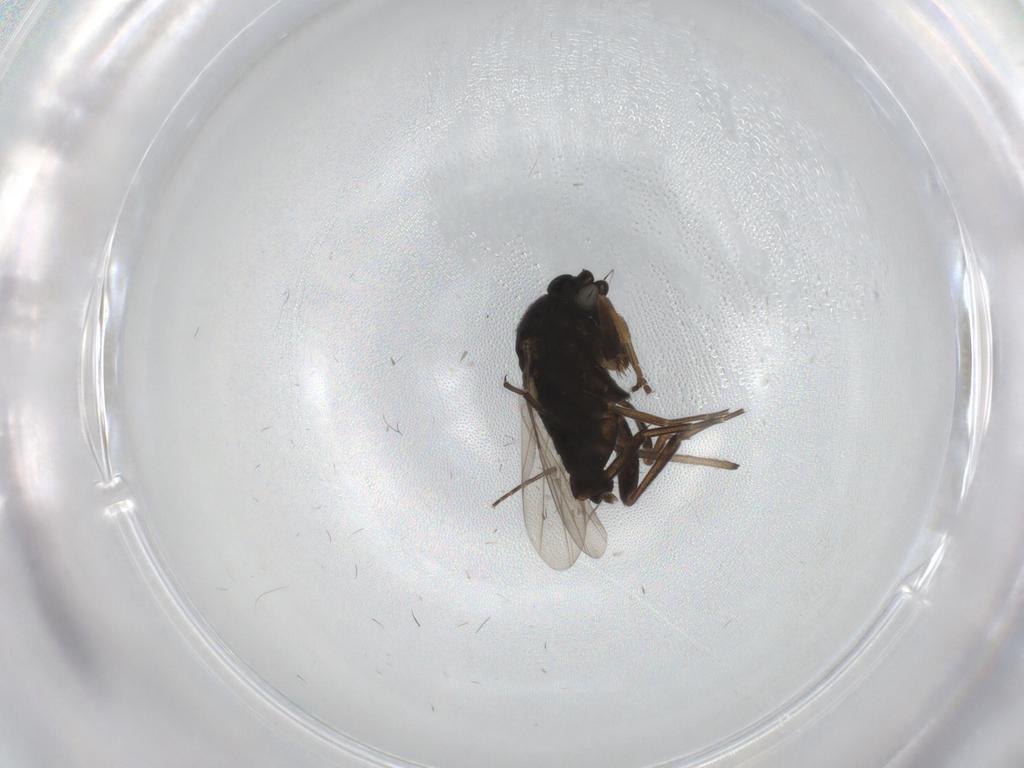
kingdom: Animalia
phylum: Arthropoda
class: Insecta
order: Diptera
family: Phoridae
